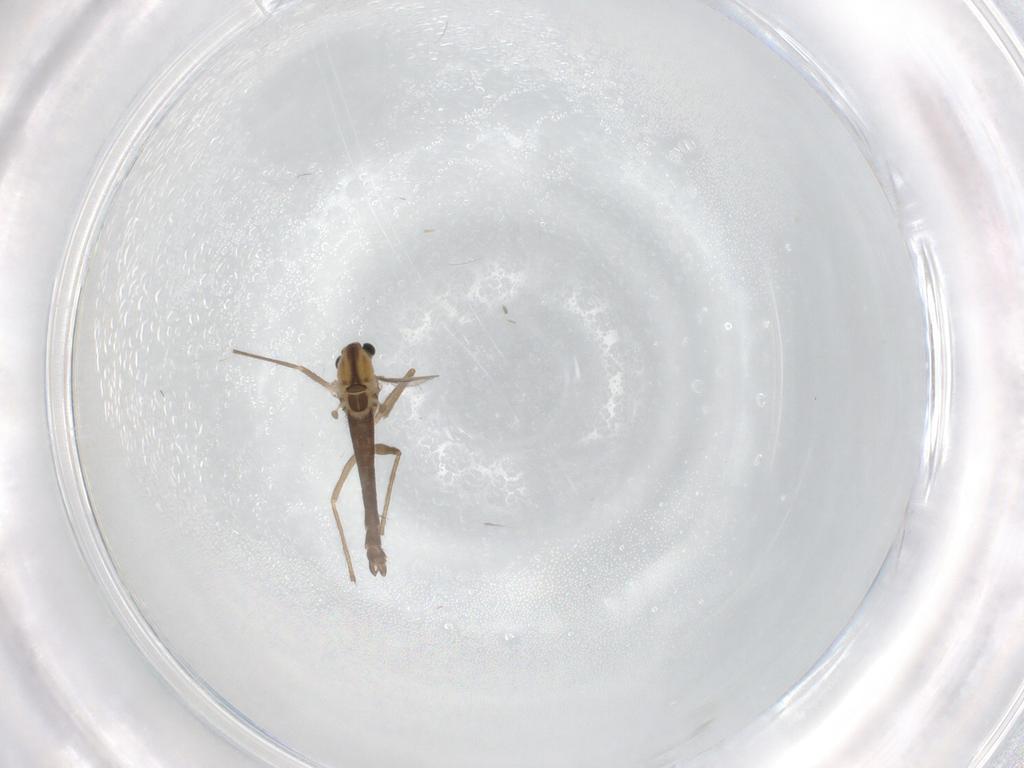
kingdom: Animalia
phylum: Arthropoda
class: Insecta
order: Diptera
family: Chironomidae
